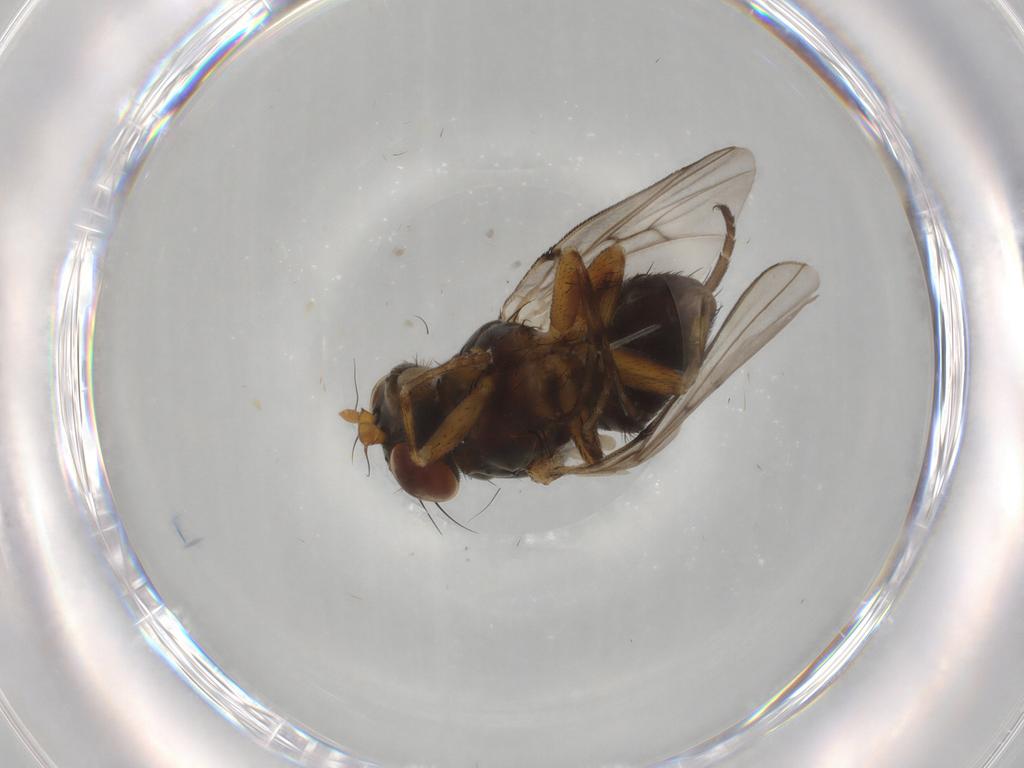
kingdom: Animalia
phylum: Arthropoda
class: Insecta
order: Diptera
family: Odiniidae
